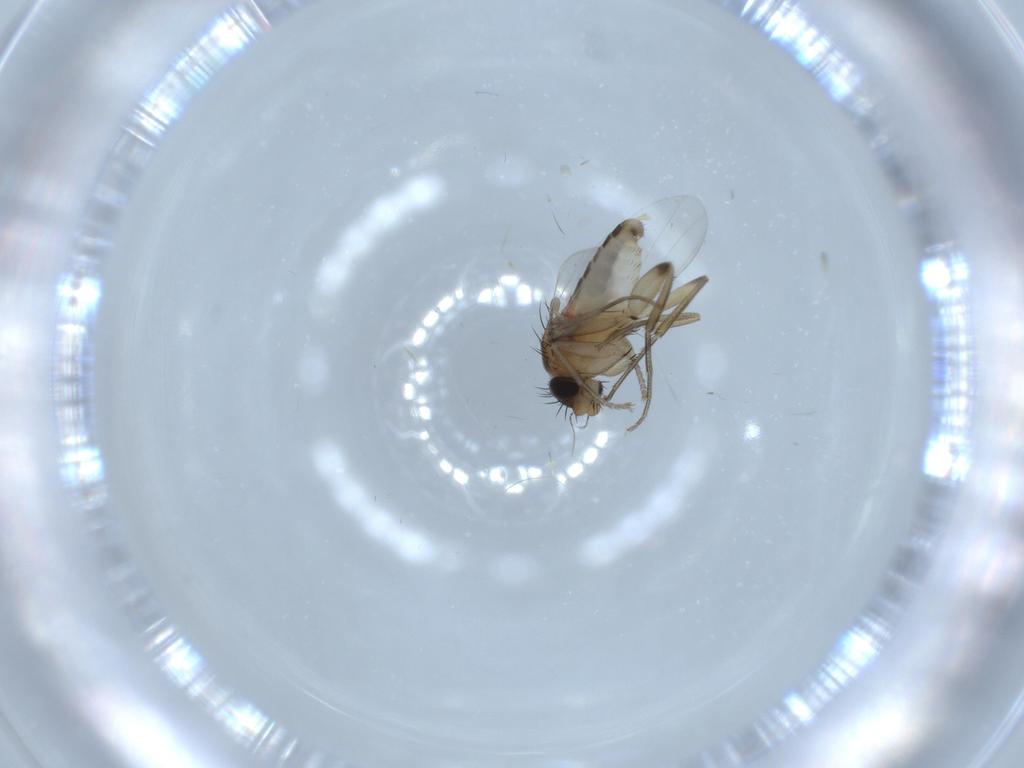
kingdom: Animalia
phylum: Arthropoda
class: Insecta
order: Diptera
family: Phoridae
